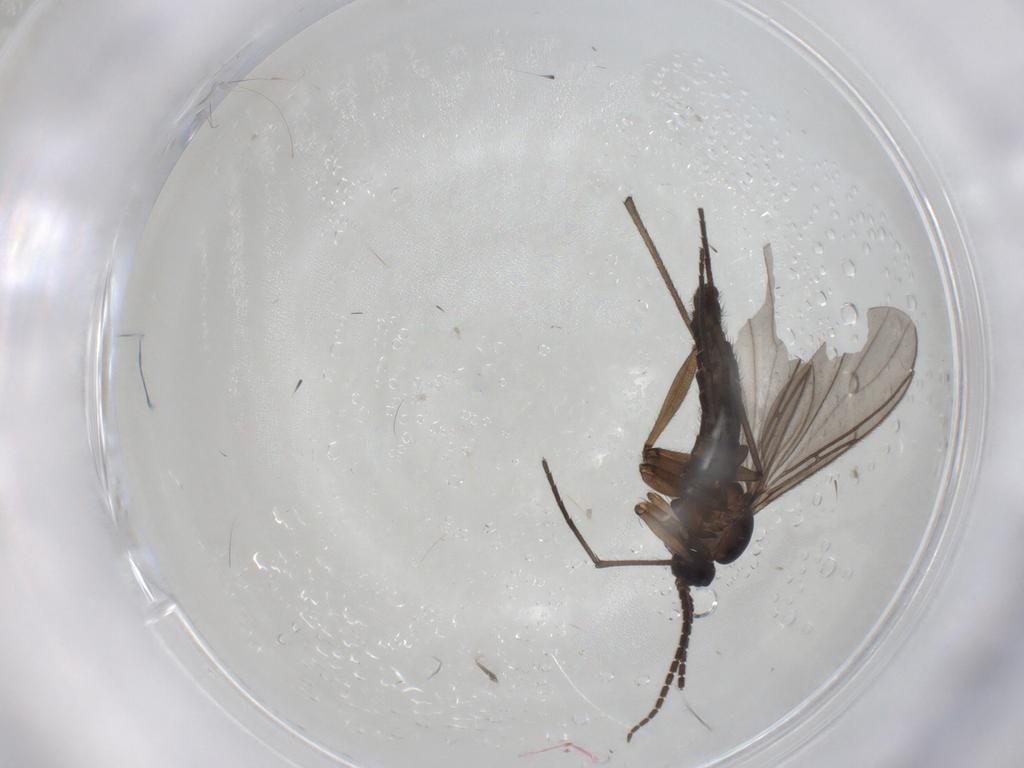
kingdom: Animalia
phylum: Arthropoda
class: Insecta
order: Diptera
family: Sciaridae
